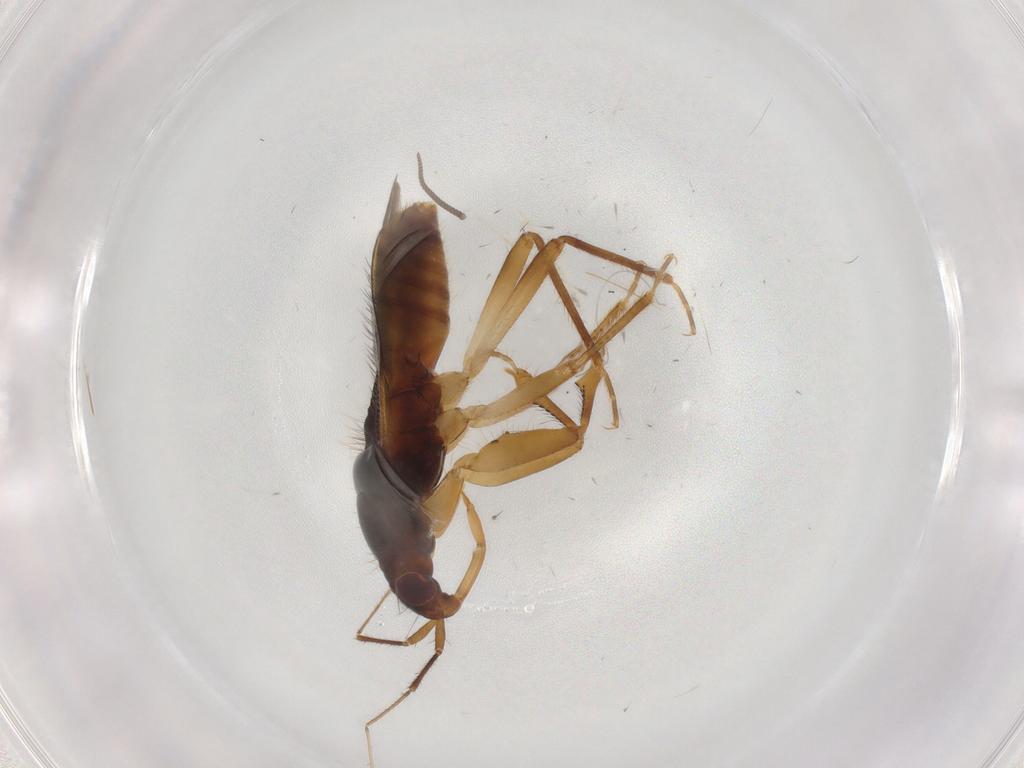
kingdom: Animalia
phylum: Arthropoda
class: Insecta
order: Hemiptera
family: Nabidae
